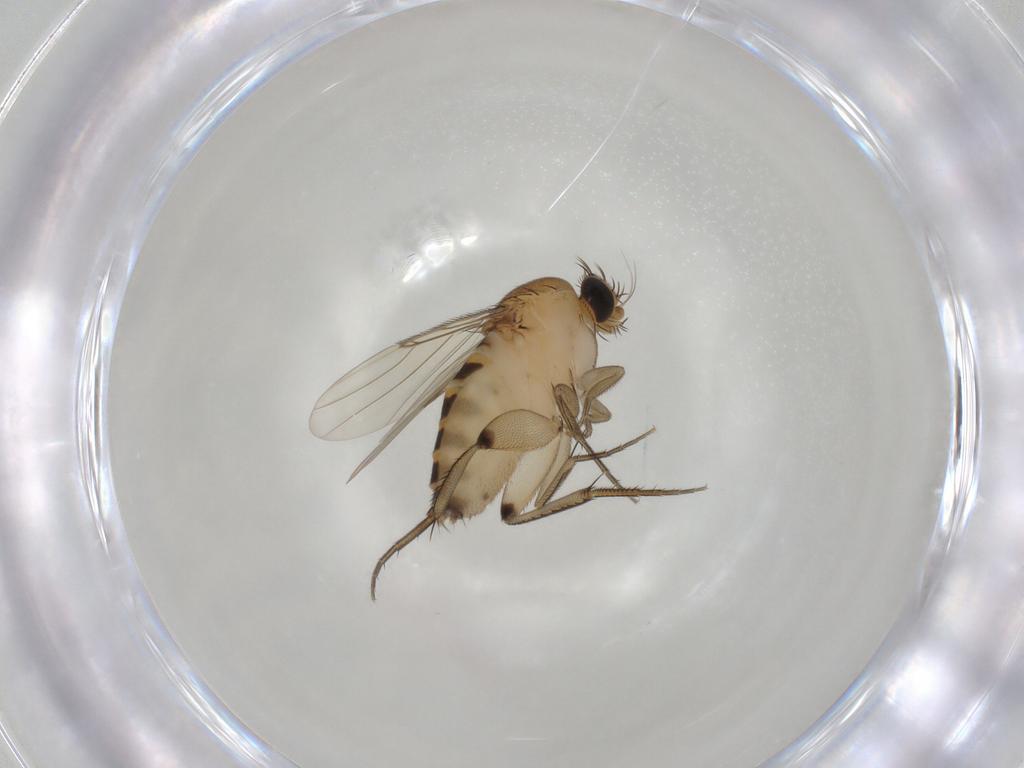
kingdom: Animalia
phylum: Arthropoda
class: Insecta
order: Diptera
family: Phoridae
